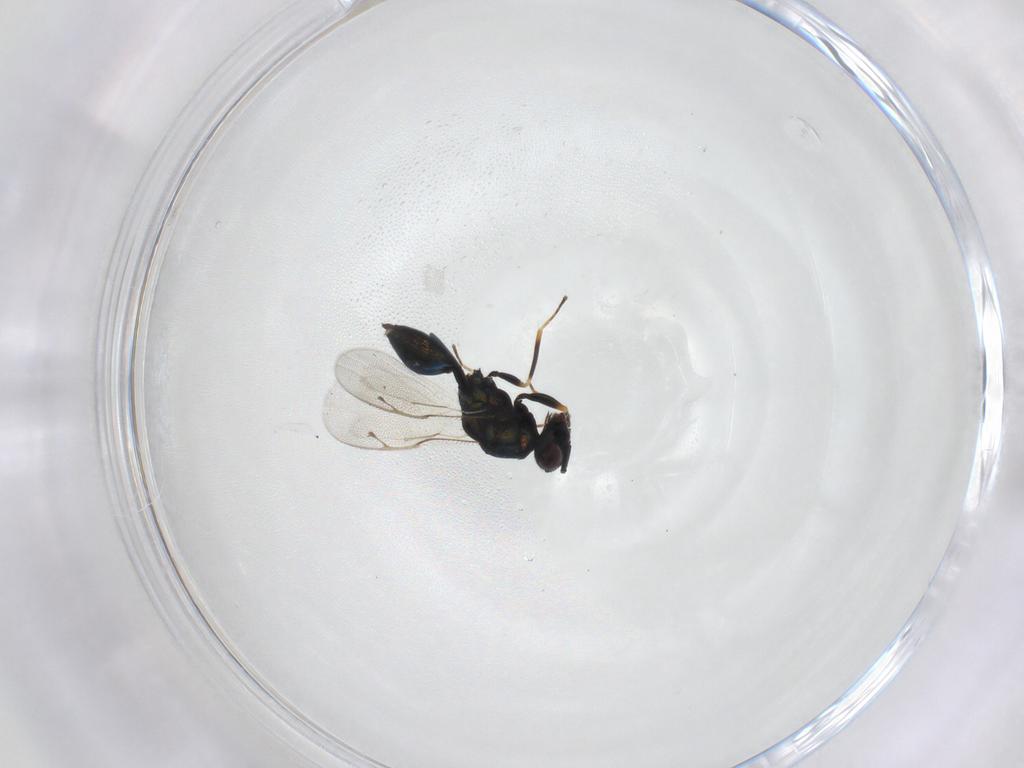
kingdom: Animalia
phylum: Arthropoda
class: Insecta
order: Hymenoptera
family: Pteromalidae
